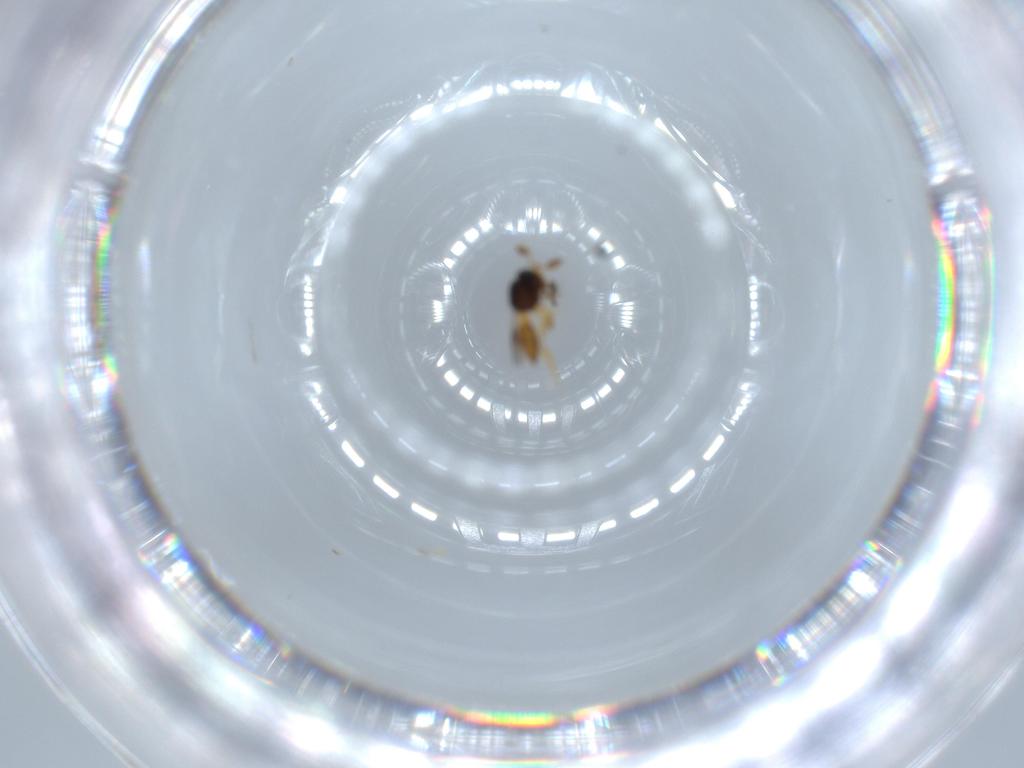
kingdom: Animalia
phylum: Arthropoda
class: Insecta
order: Hymenoptera
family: Scelionidae
